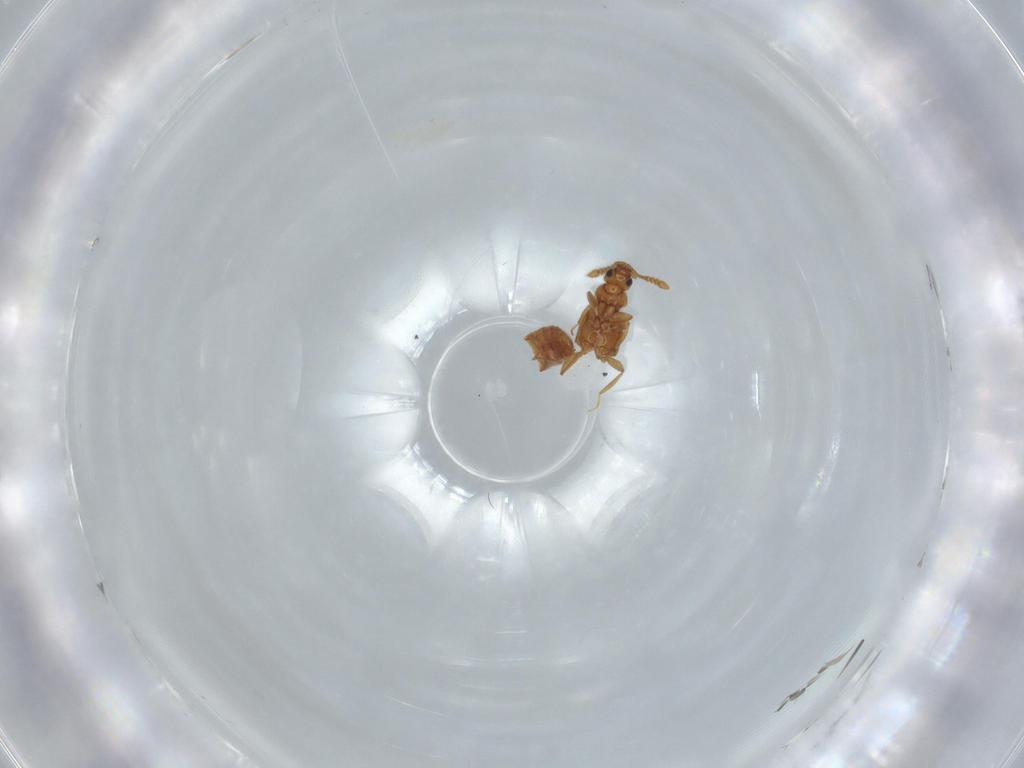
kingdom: Animalia
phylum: Arthropoda
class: Insecta
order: Coleoptera
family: Staphylinidae
